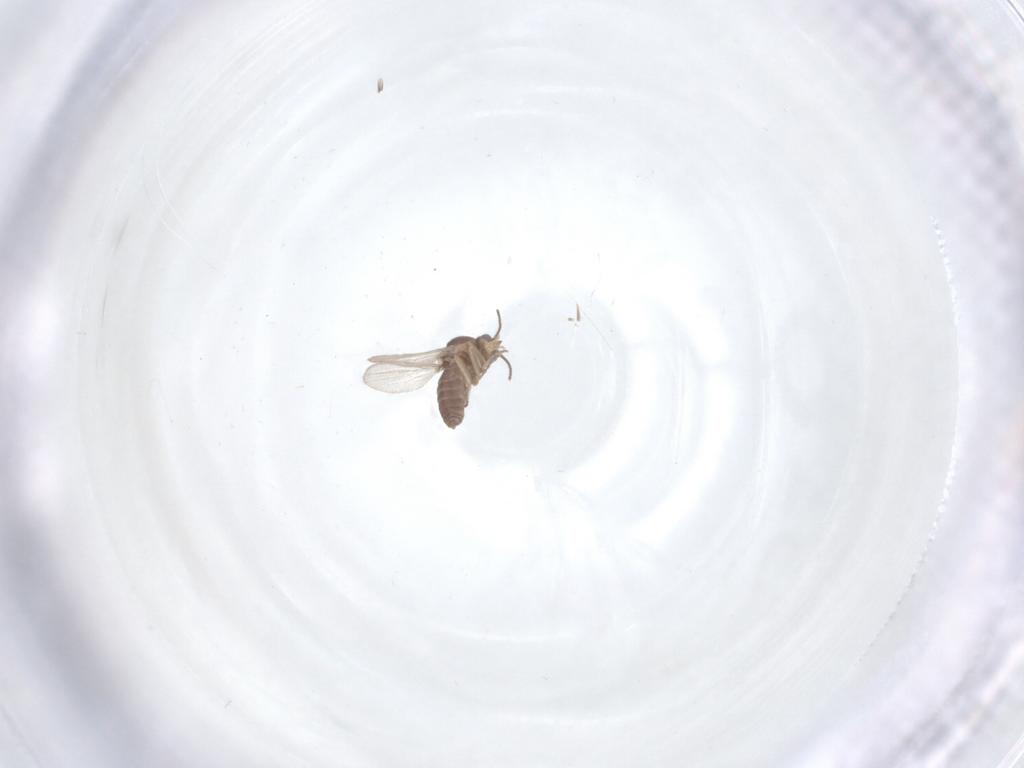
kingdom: Animalia
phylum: Arthropoda
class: Insecta
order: Diptera
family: Ceratopogonidae
